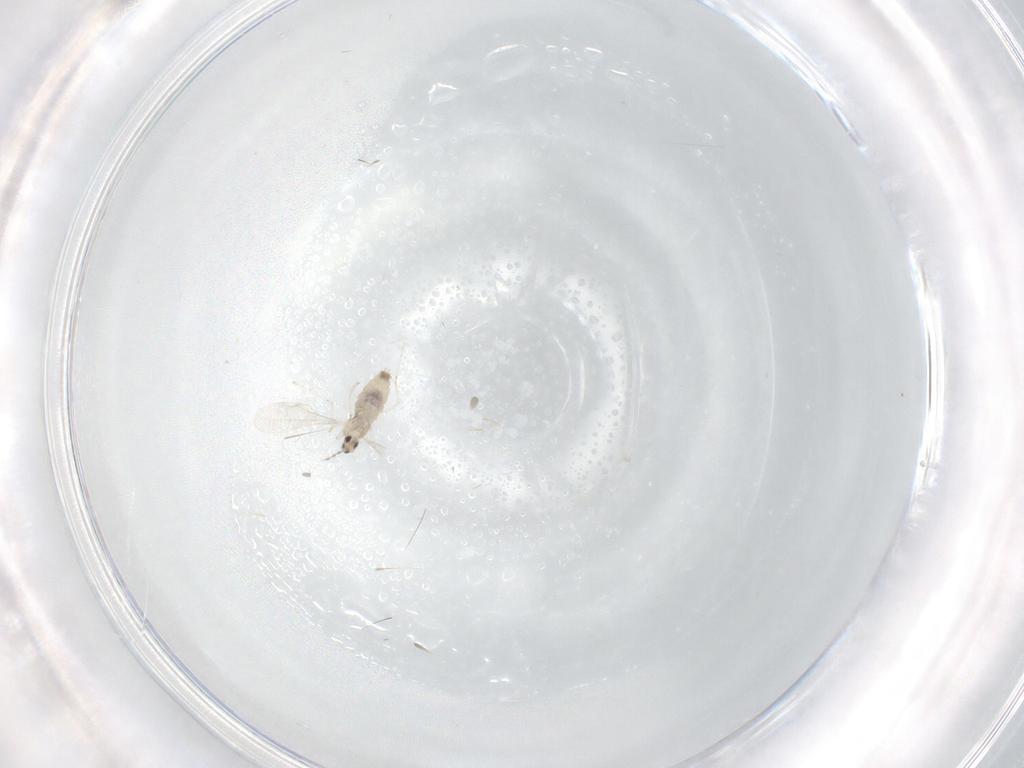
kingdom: Animalia
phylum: Arthropoda
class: Insecta
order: Diptera
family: Cecidomyiidae
